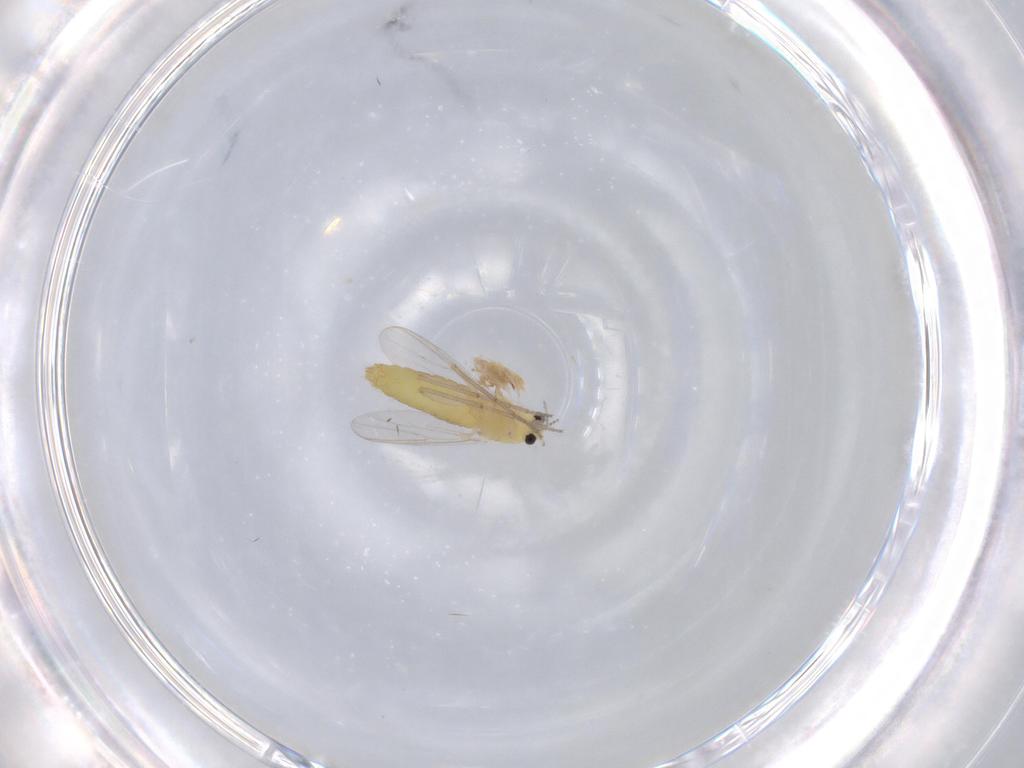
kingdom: Animalia
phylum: Arthropoda
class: Insecta
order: Diptera
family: Chironomidae
